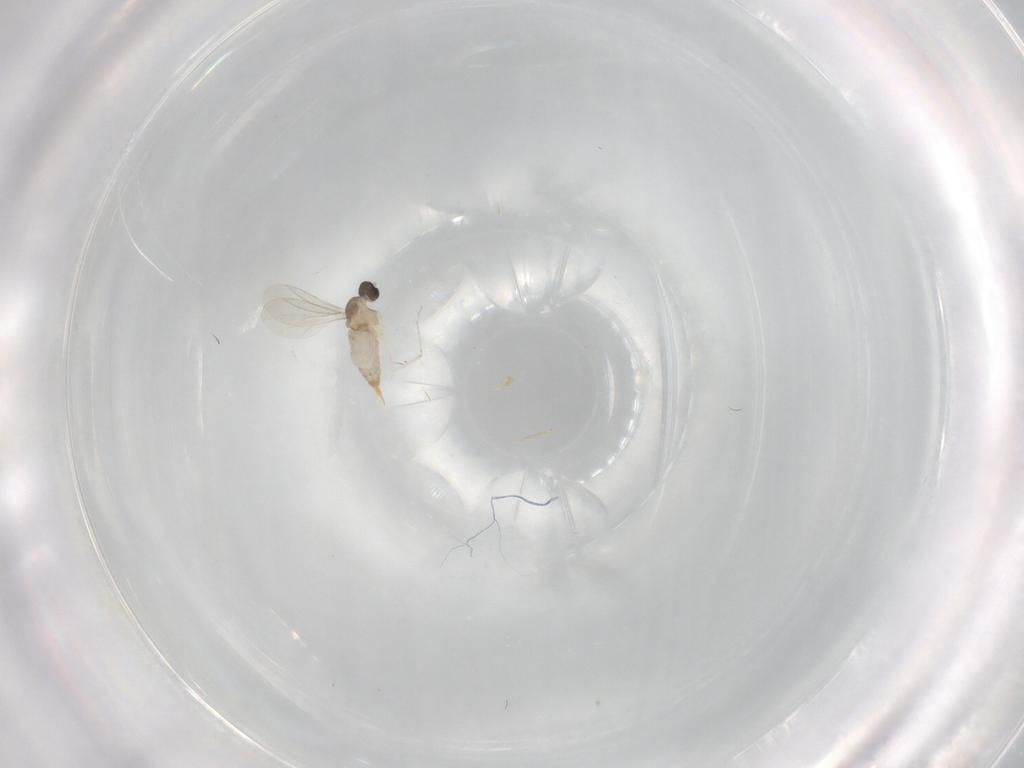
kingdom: Animalia
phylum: Arthropoda
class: Insecta
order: Diptera
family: Cecidomyiidae
